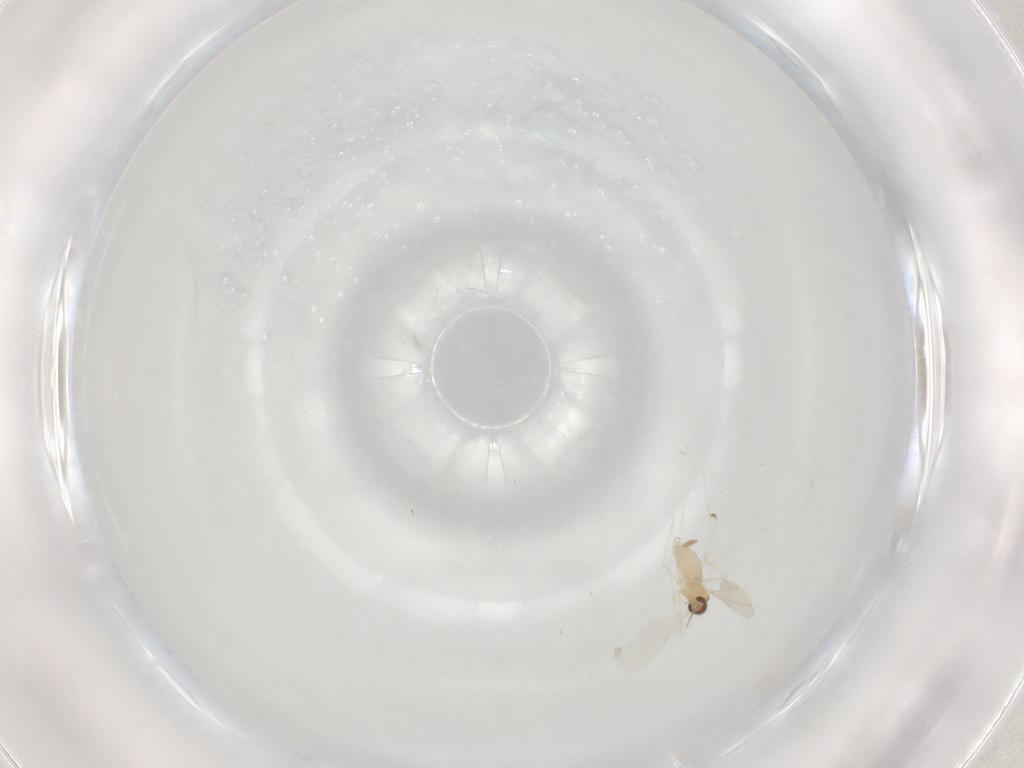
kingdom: Animalia
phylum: Arthropoda
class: Insecta
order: Diptera
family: Cecidomyiidae
